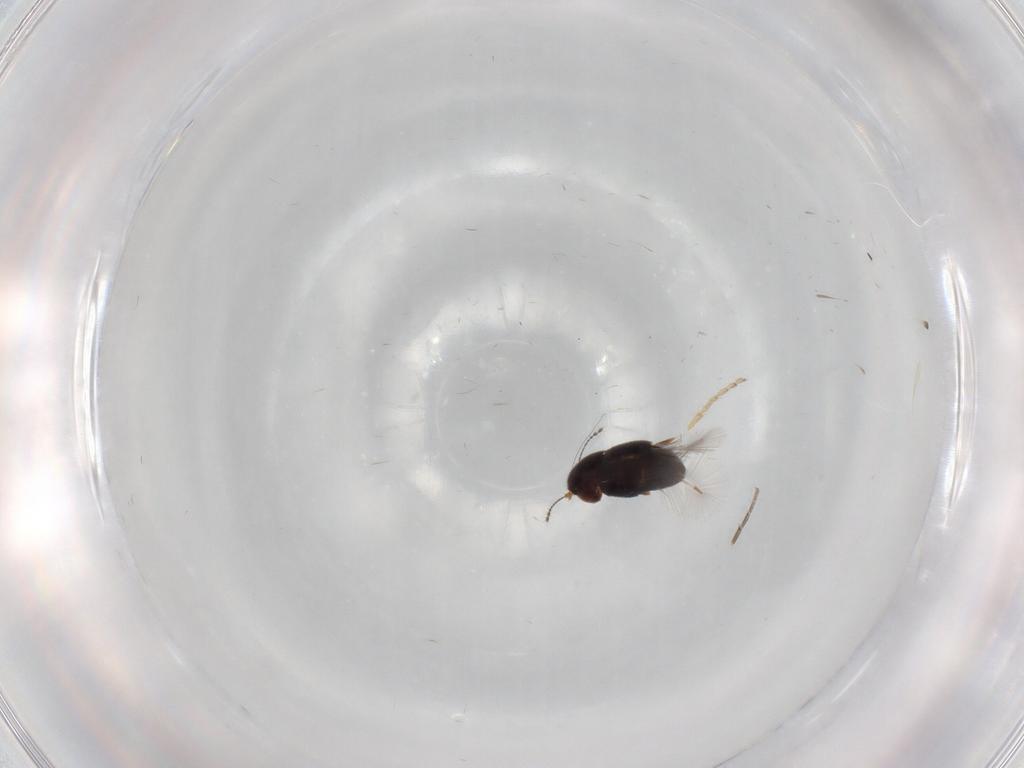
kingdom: Animalia
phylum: Arthropoda
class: Insecta
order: Coleoptera
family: Ptiliidae
